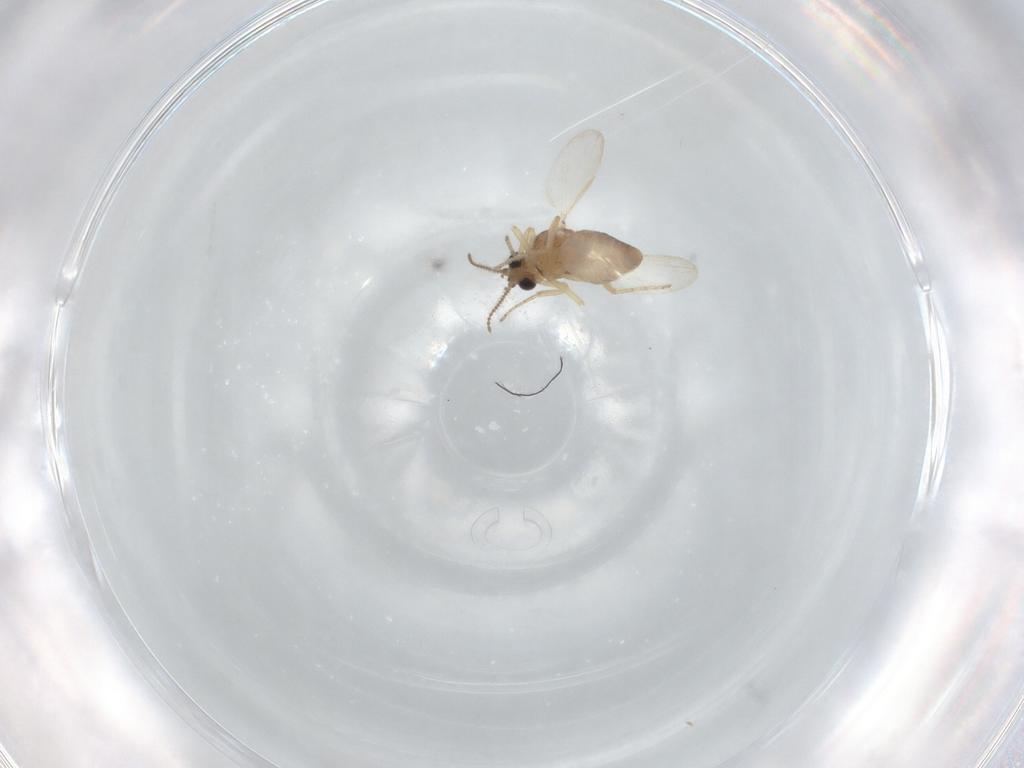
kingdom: Animalia
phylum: Arthropoda
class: Insecta
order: Diptera
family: Ceratopogonidae
